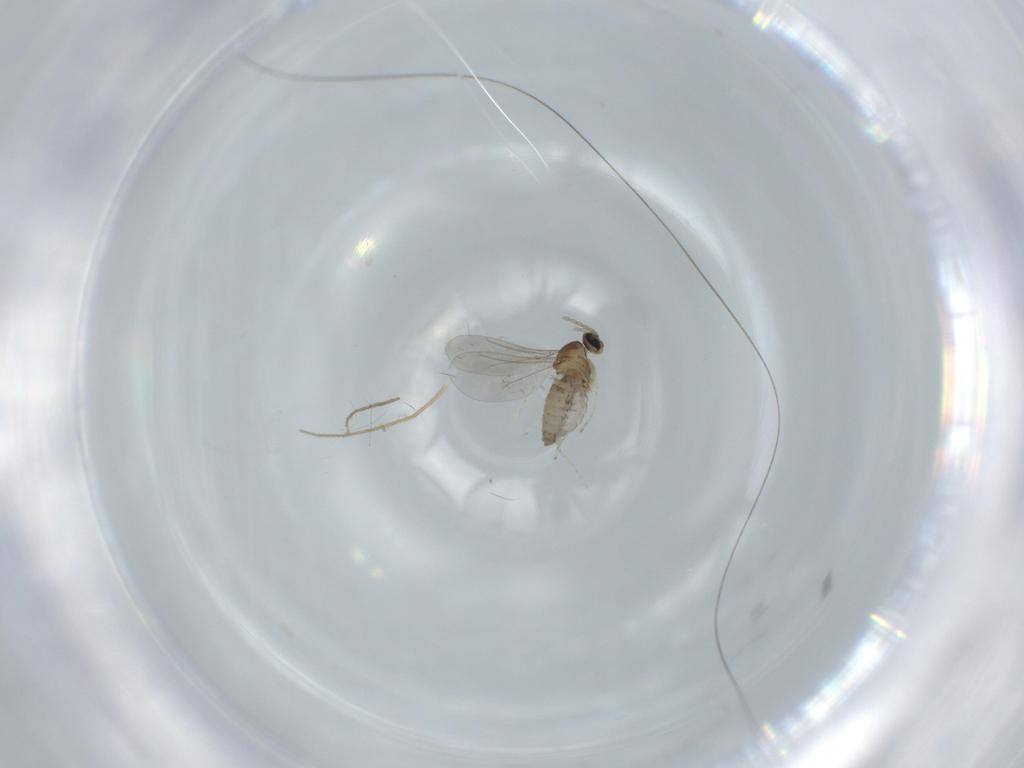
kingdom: Animalia
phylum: Arthropoda
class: Insecta
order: Diptera
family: Cecidomyiidae
